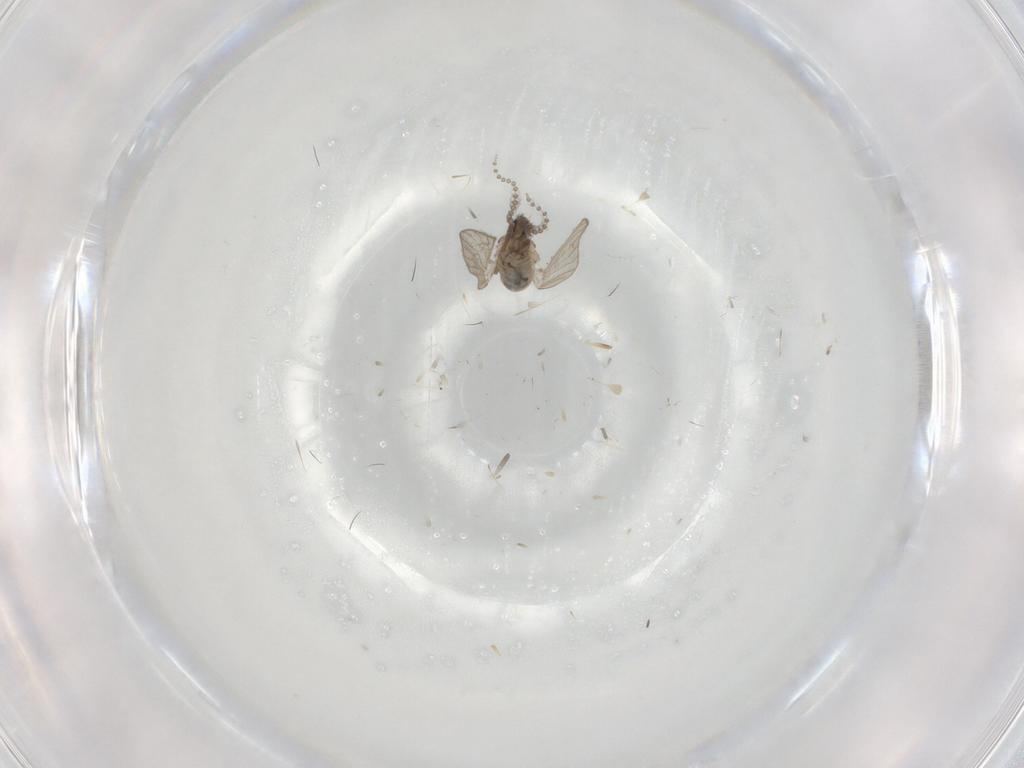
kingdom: Animalia
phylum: Arthropoda
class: Insecta
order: Diptera
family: Psychodidae
